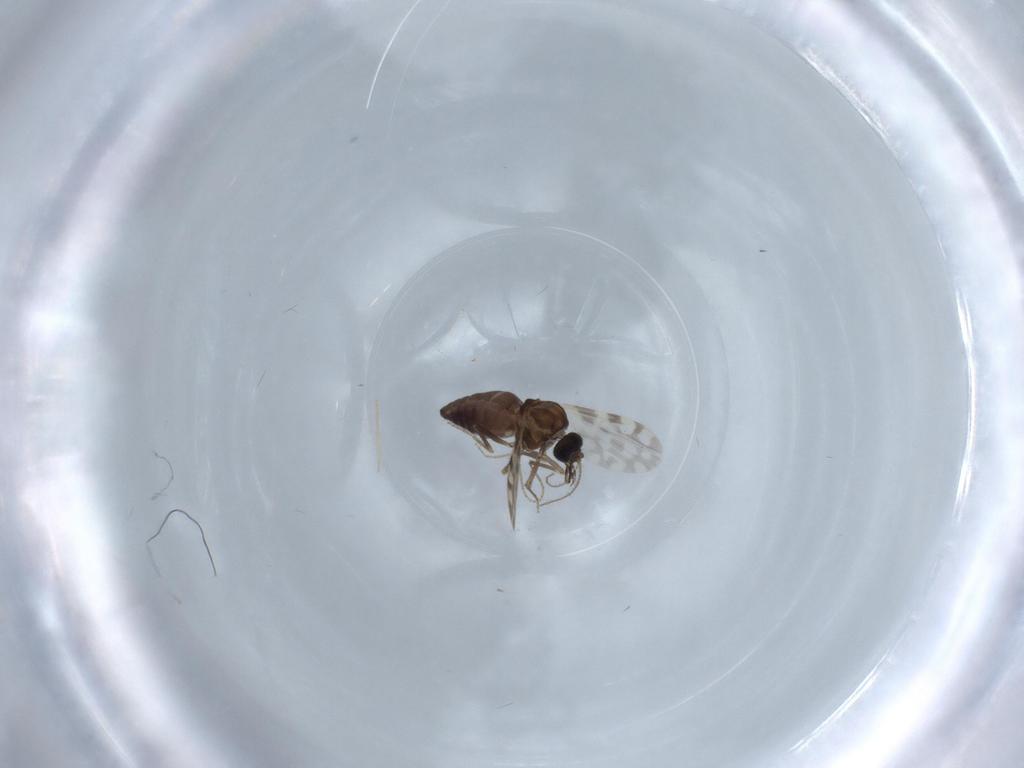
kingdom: Animalia
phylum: Arthropoda
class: Insecta
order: Diptera
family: Ceratopogonidae
